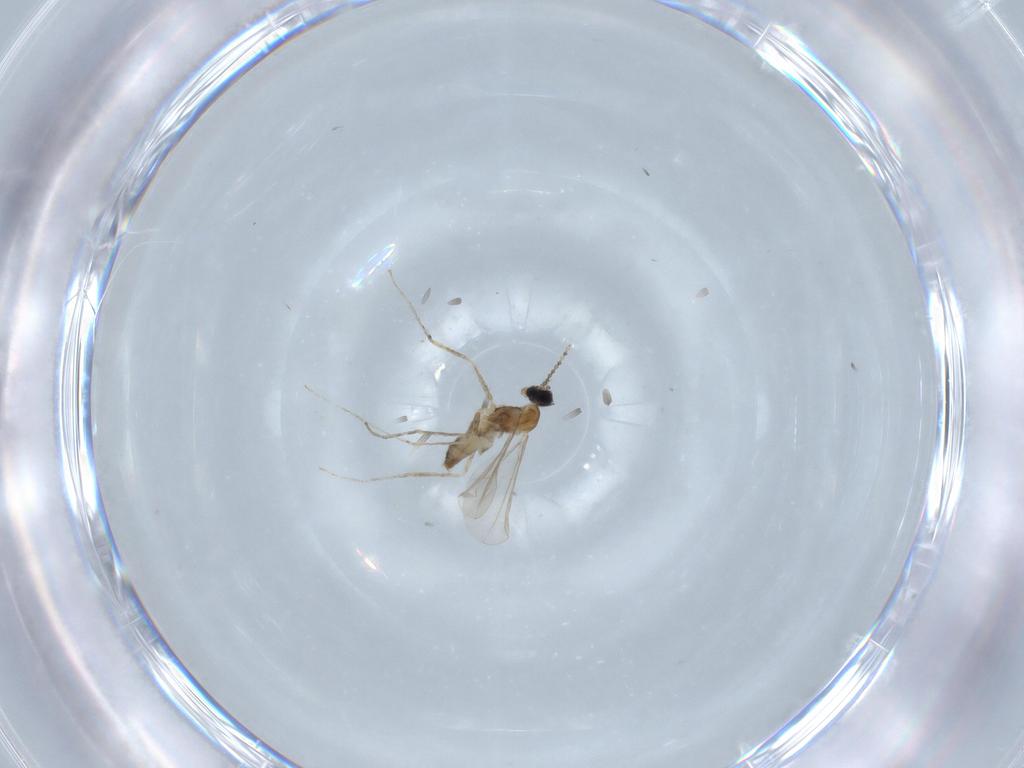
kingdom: Animalia
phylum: Arthropoda
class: Insecta
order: Diptera
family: Cecidomyiidae
